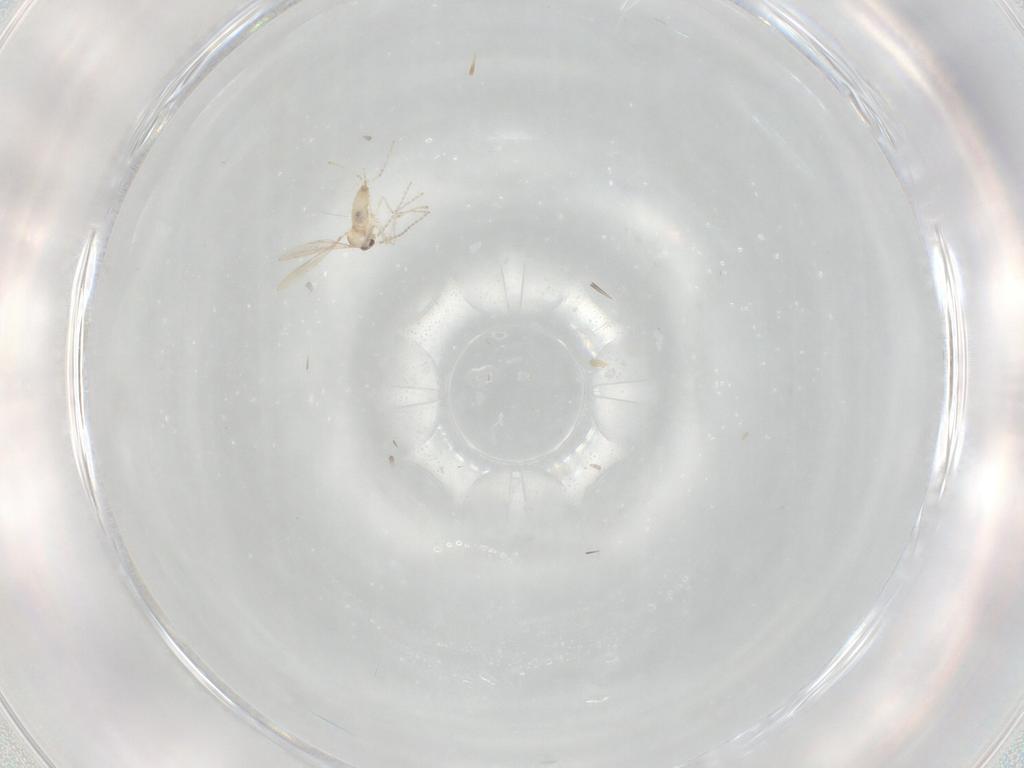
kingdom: Animalia
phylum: Arthropoda
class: Insecta
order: Diptera
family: Cecidomyiidae
